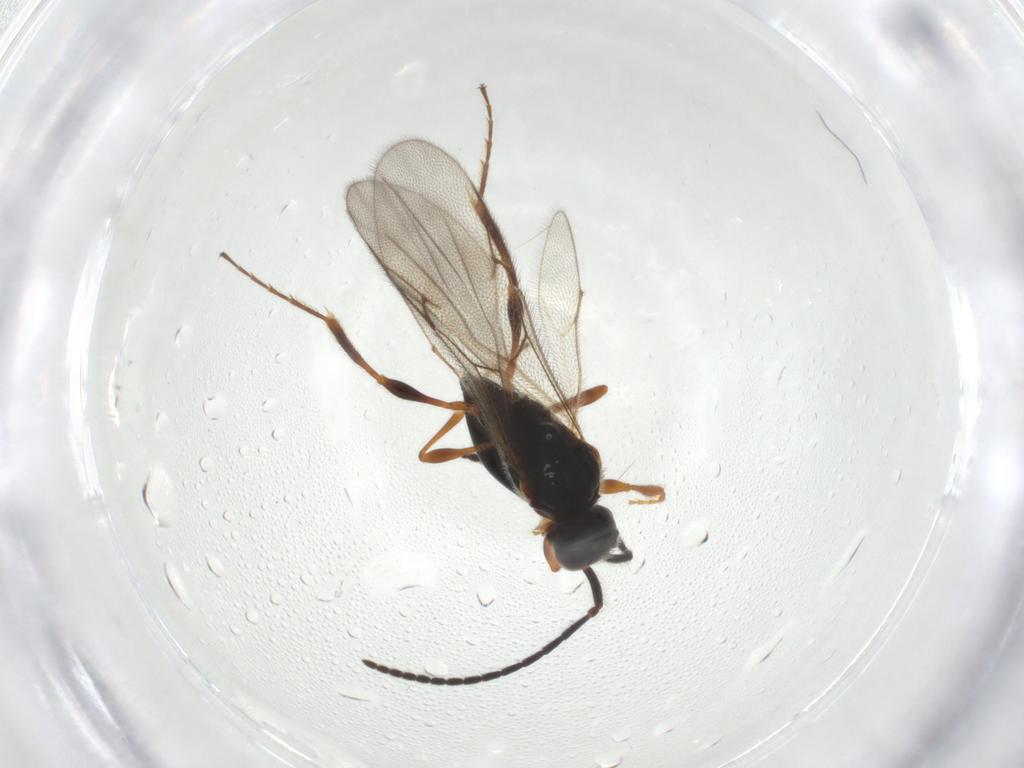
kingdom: Animalia
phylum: Arthropoda
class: Insecta
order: Hymenoptera
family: Diapriidae
